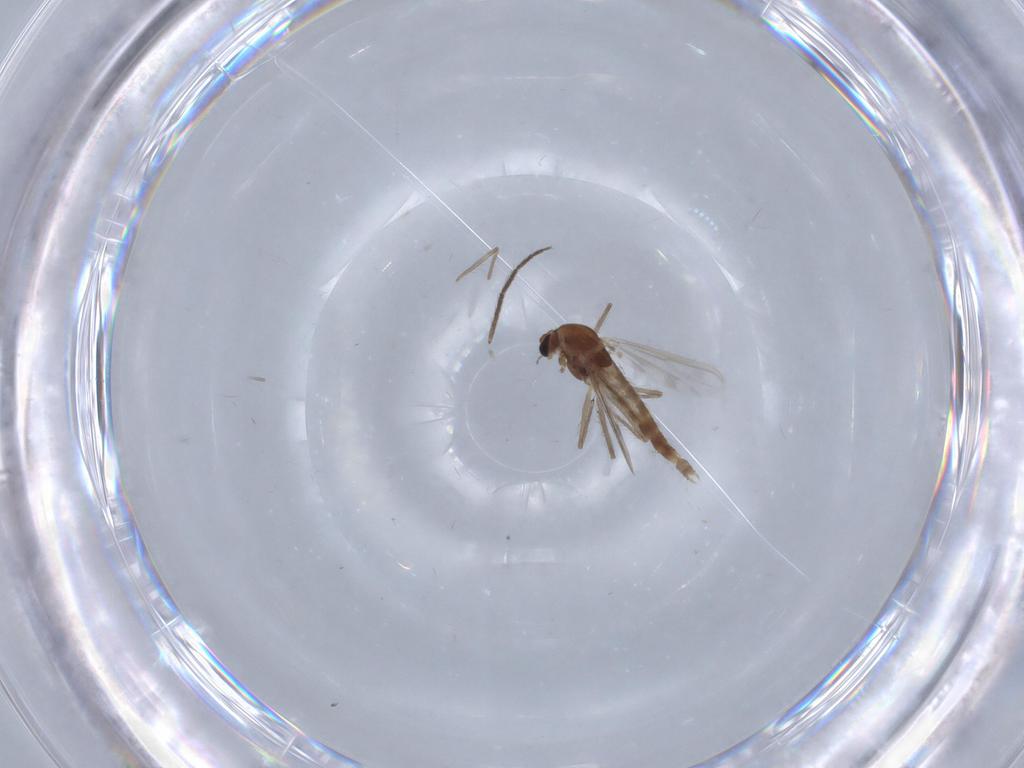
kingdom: Animalia
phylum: Arthropoda
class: Insecta
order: Diptera
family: Chironomidae
